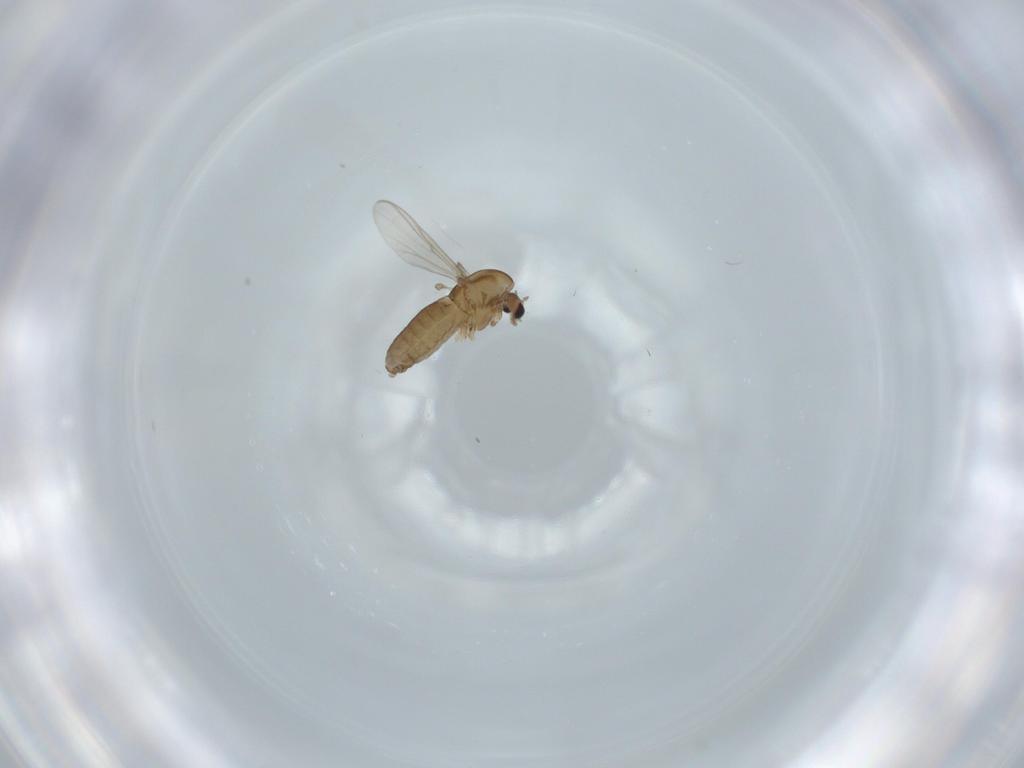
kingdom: Animalia
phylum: Arthropoda
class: Insecta
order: Diptera
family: Chironomidae
